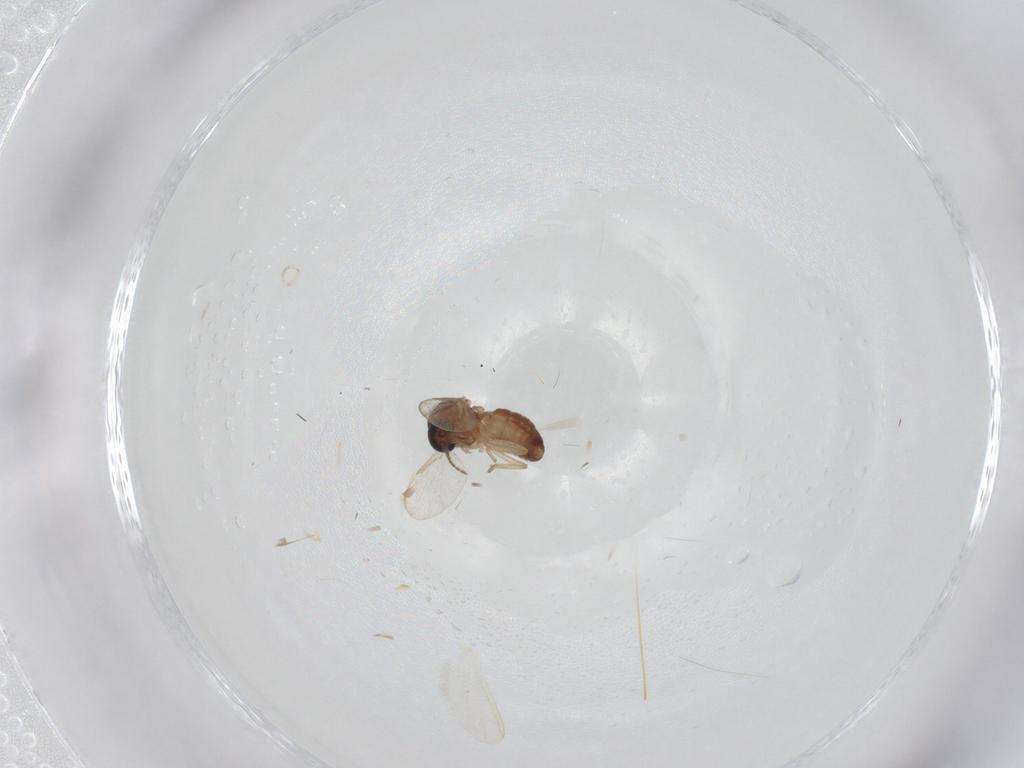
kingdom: Animalia
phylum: Arthropoda
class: Insecta
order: Diptera
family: Ceratopogonidae
